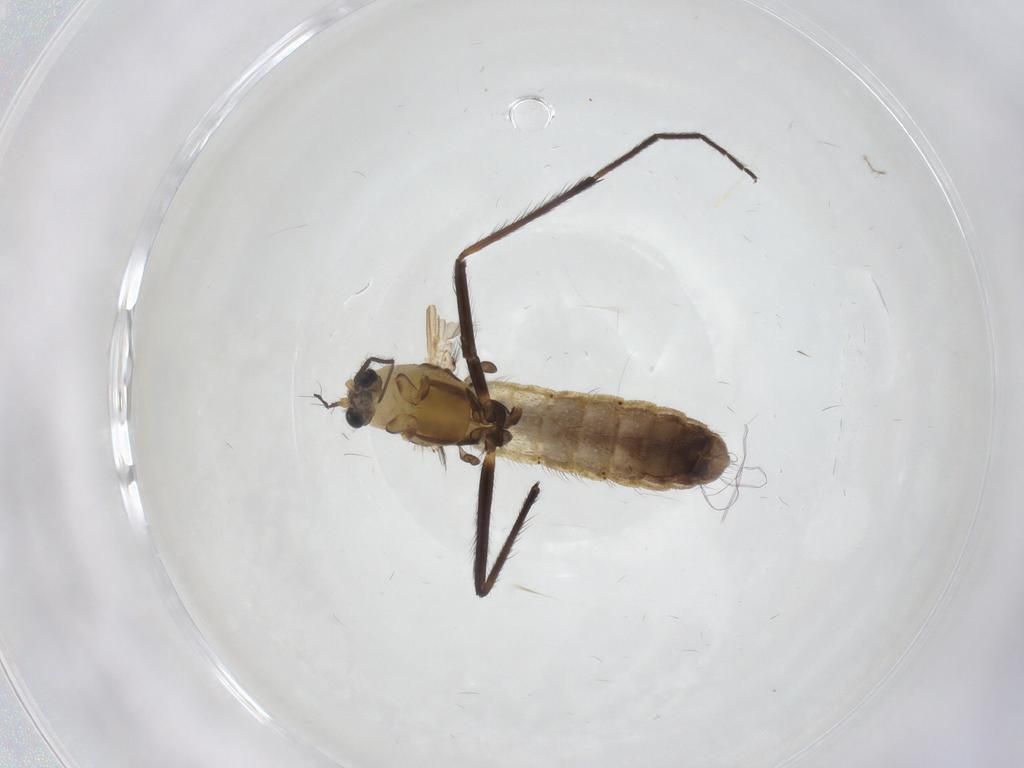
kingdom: Animalia
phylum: Arthropoda
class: Insecta
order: Diptera
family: Chironomidae
